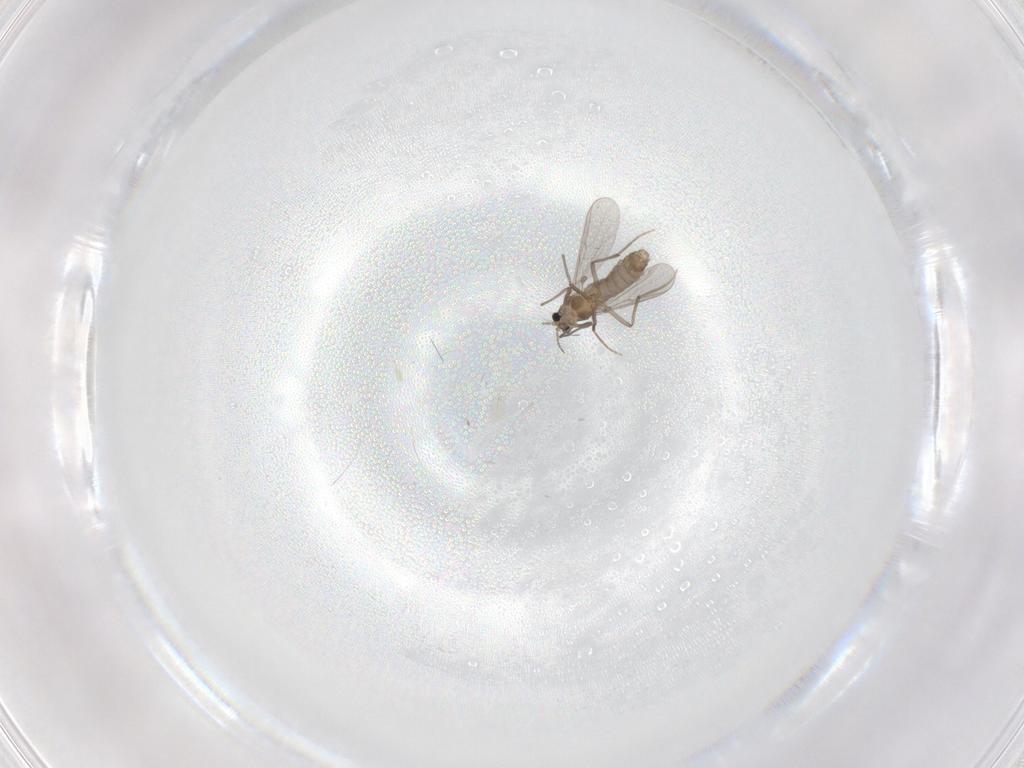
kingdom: Animalia
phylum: Arthropoda
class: Insecta
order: Diptera
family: Chironomidae
